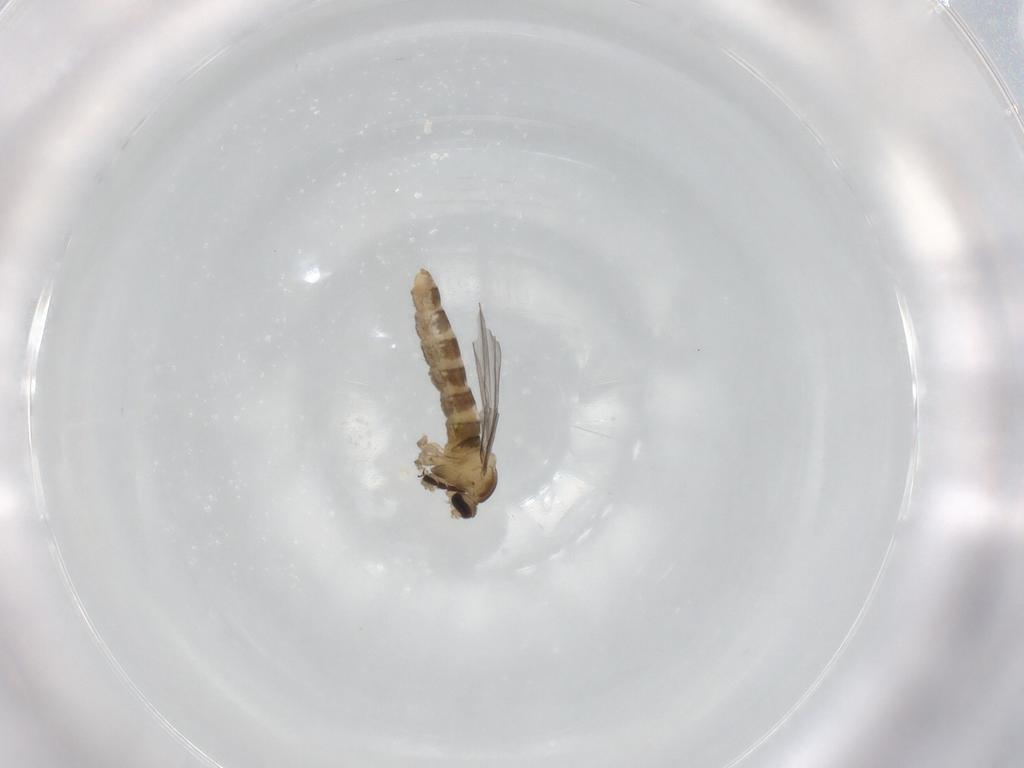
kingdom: Animalia
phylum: Arthropoda
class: Insecta
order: Diptera
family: Cecidomyiidae
